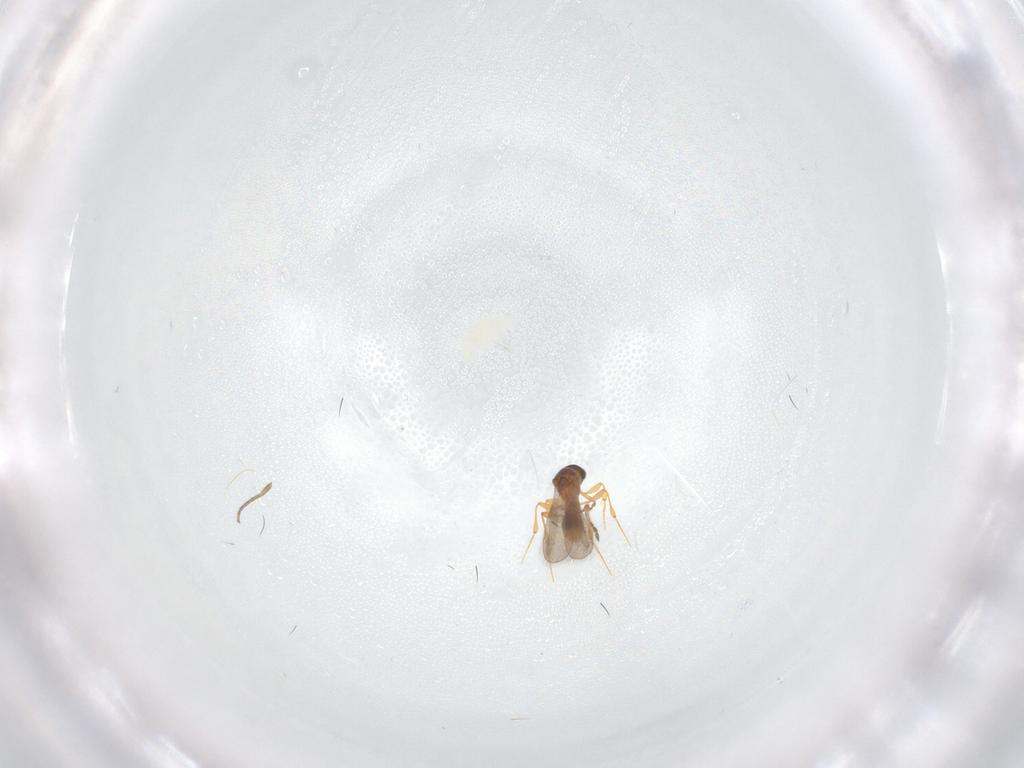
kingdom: Animalia
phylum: Arthropoda
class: Insecta
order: Hymenoptera
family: Platygastridae
